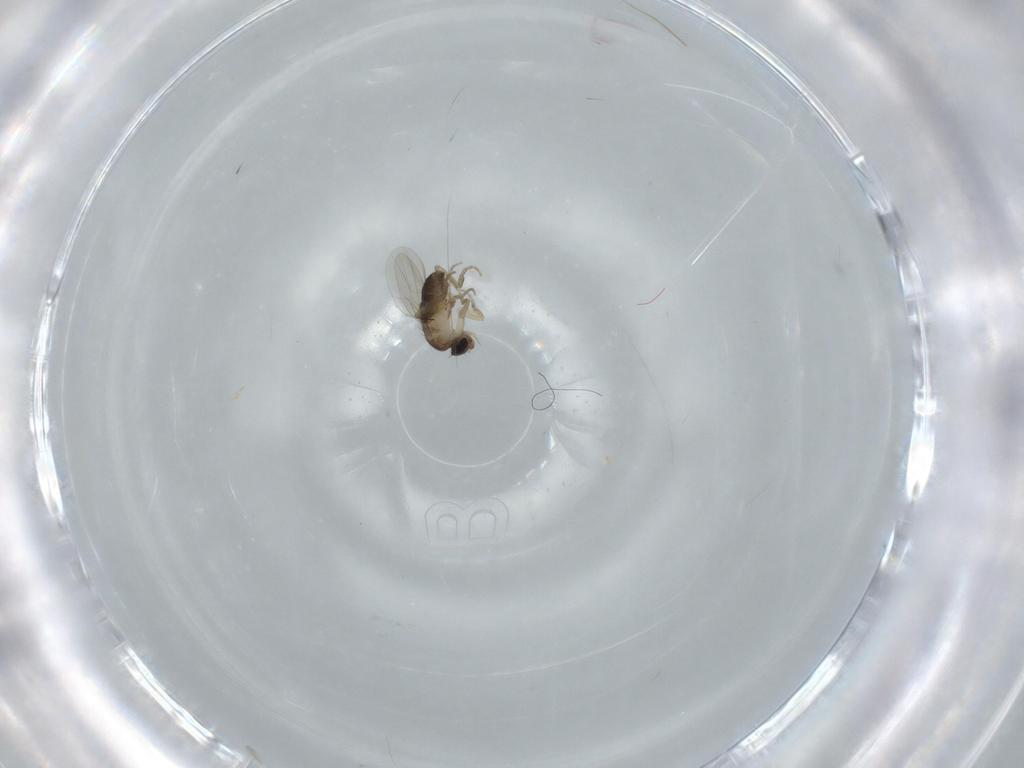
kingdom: Animalia
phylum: Arthropoda
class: Insecta
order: Diptera
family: Phoridae
